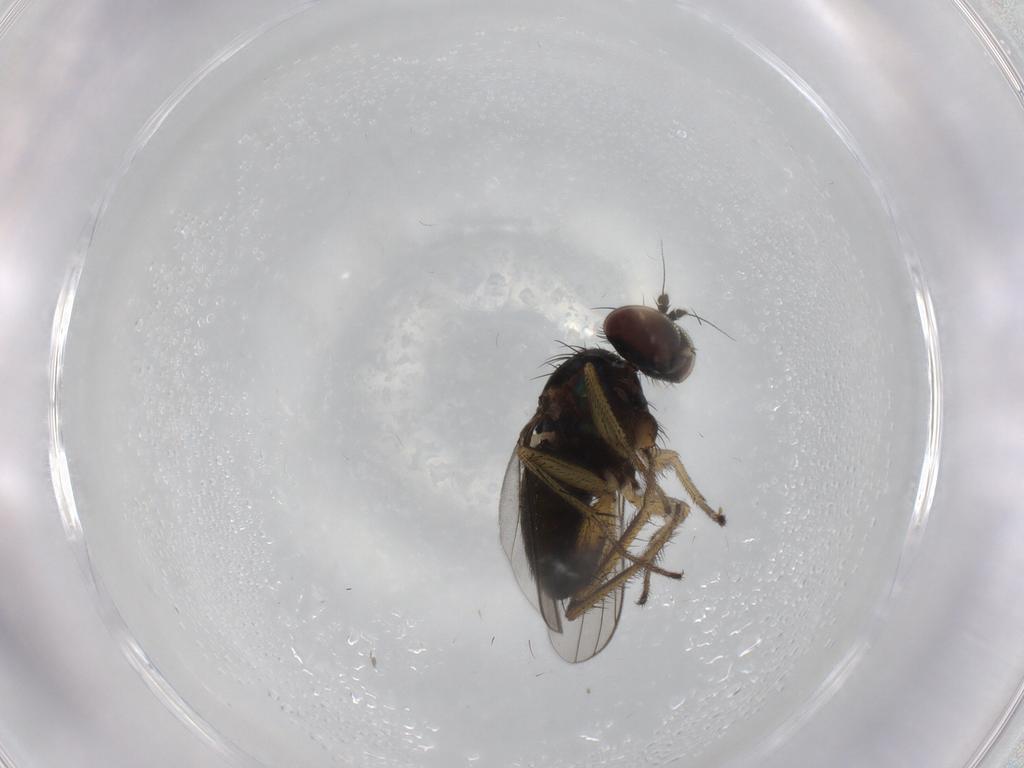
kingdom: Animalia
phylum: Arthropoda
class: Insecta
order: Diptera
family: Dolichopodidae
